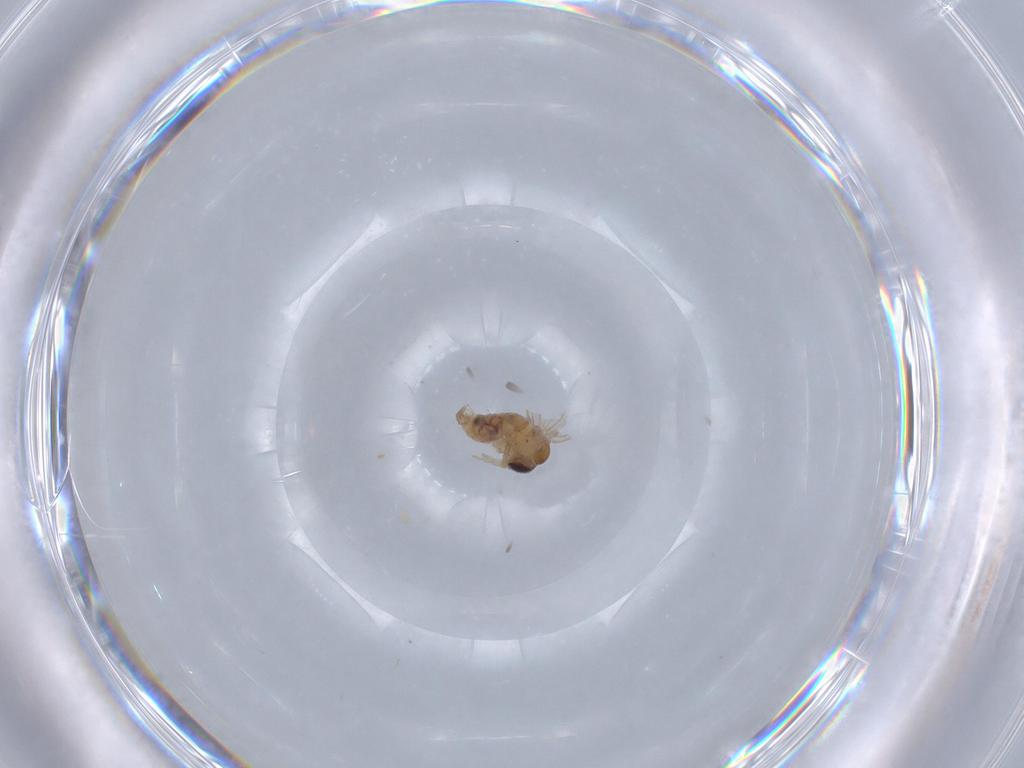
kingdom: Animalia
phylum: Arthropoda
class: Insecta
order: Diptera
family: Psychodidae
